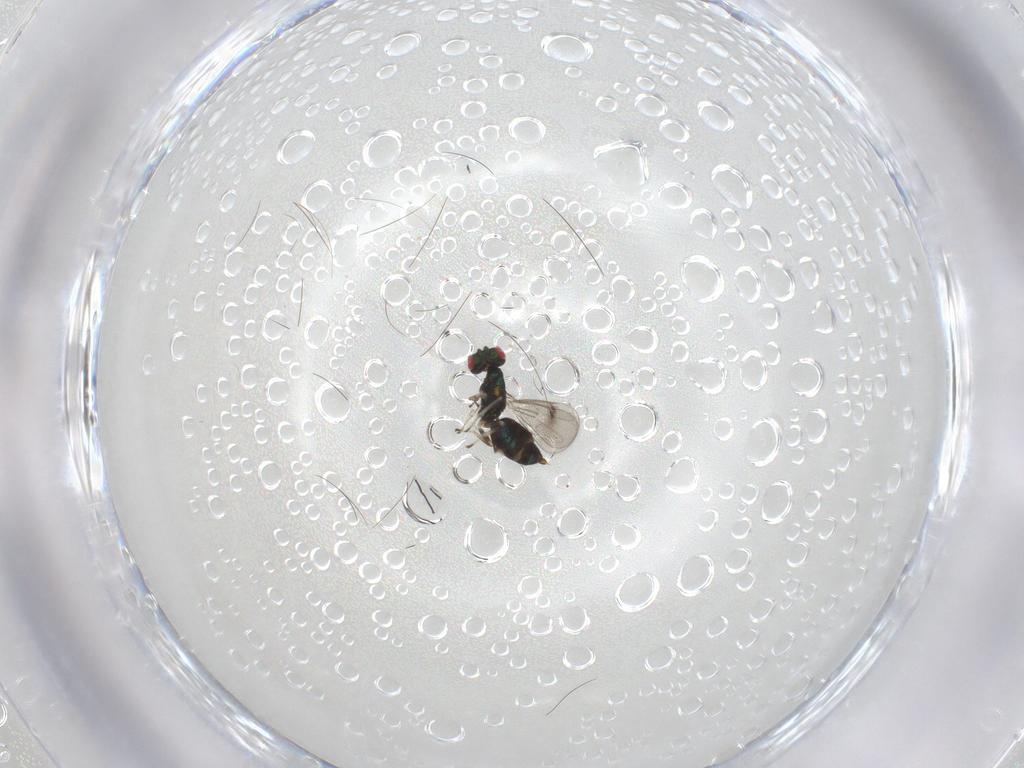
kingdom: Animalia
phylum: Arthropoda
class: Insecta
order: Hymenoptera
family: Eulophidae
